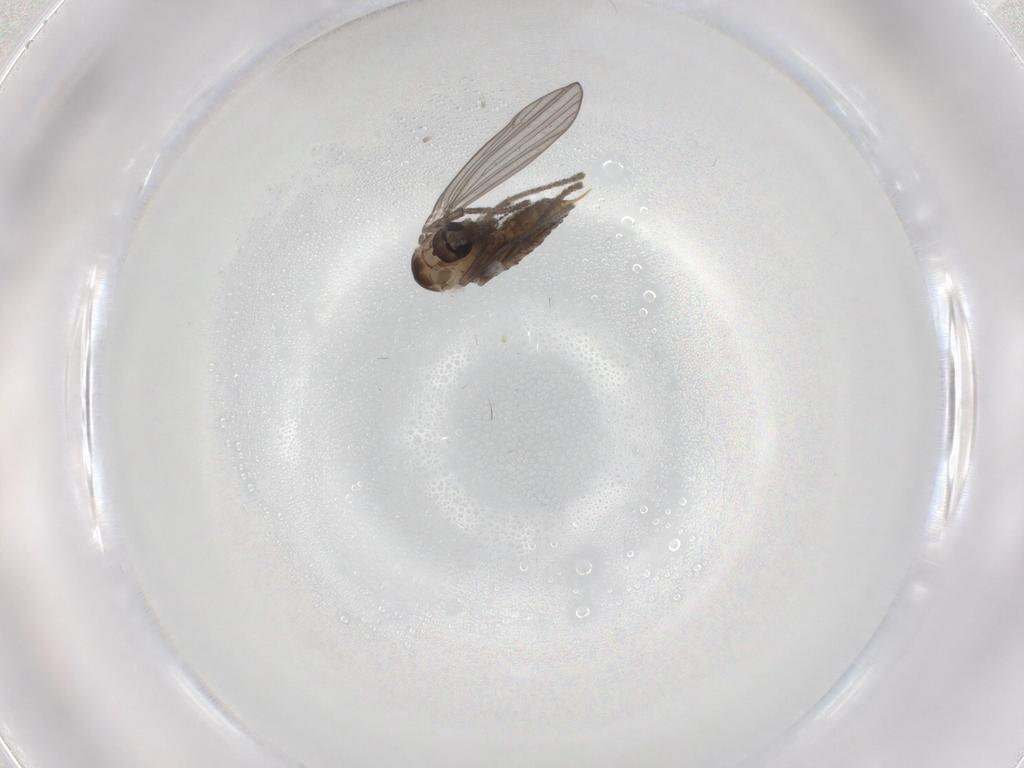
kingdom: Animalia
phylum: Arthropoda
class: Insecta
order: Diptera
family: Psychodidae
